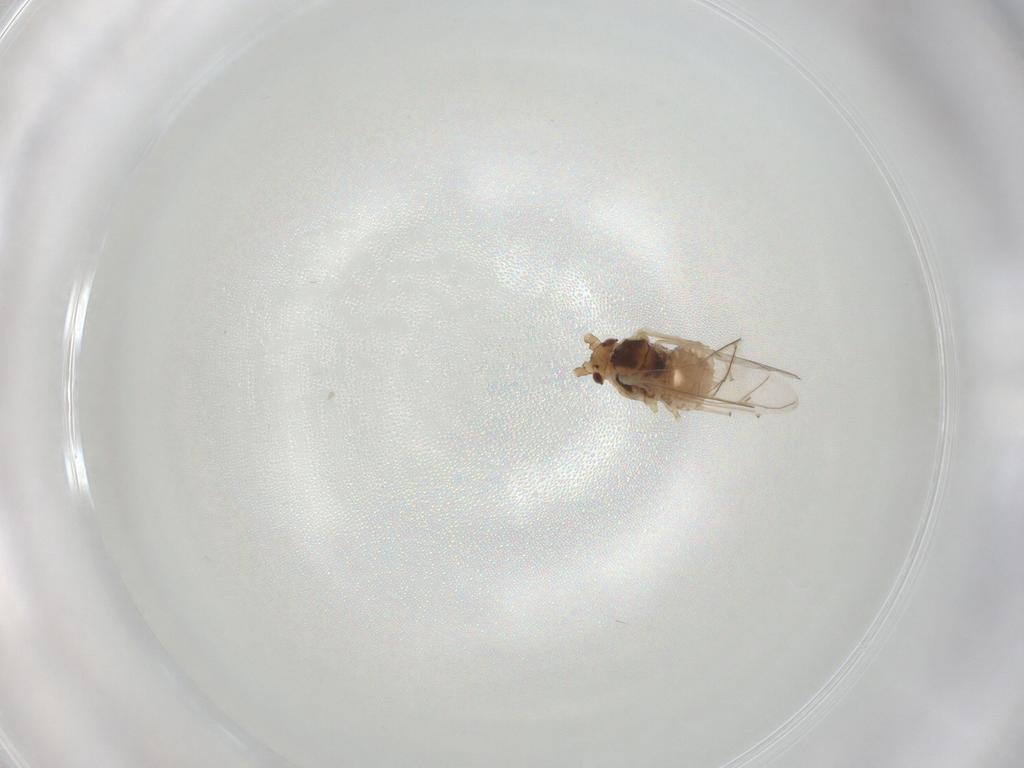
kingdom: Animalia
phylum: Arthropoda
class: Insecta
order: Hemiptera
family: Aphididae
